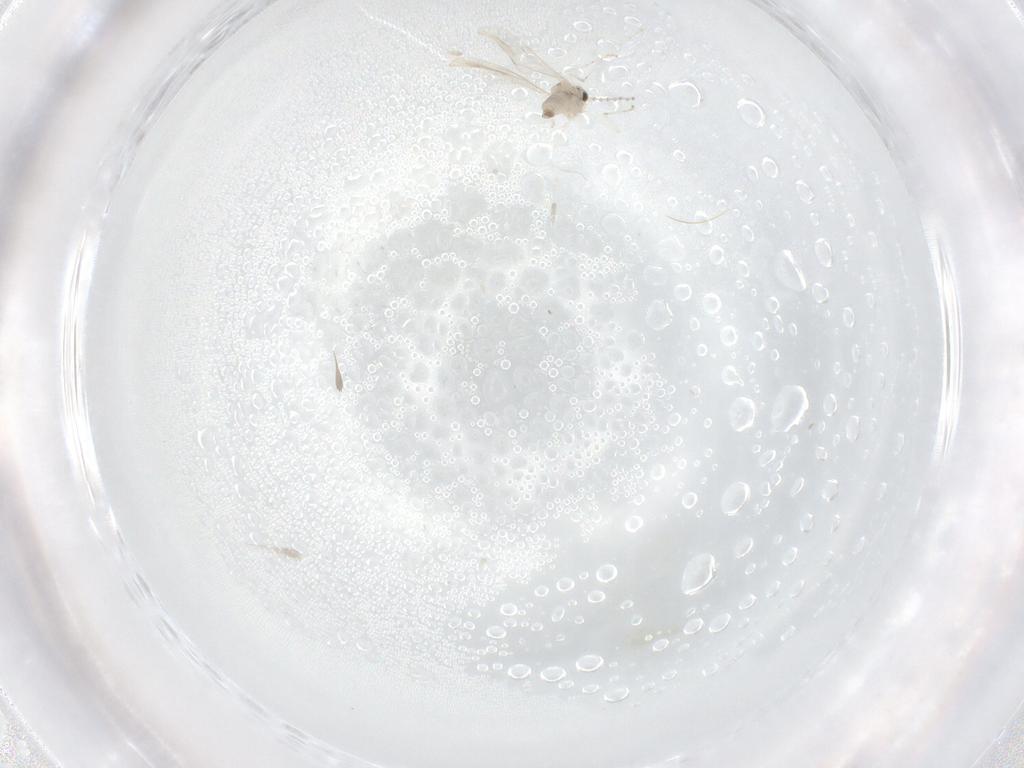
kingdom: Animalia
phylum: Arthropoda
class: Insecta
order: Diptera
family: Cecidomyiidae
